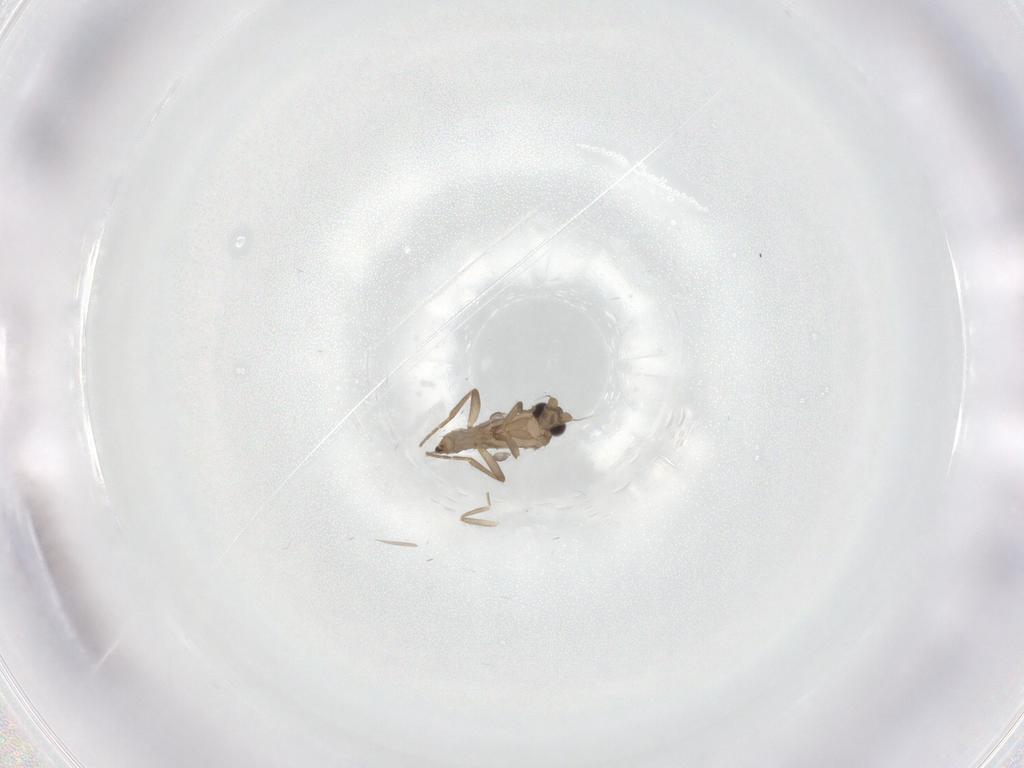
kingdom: Animalia
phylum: Arthropoda
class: Insecta
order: Diptera
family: Chironomidae
